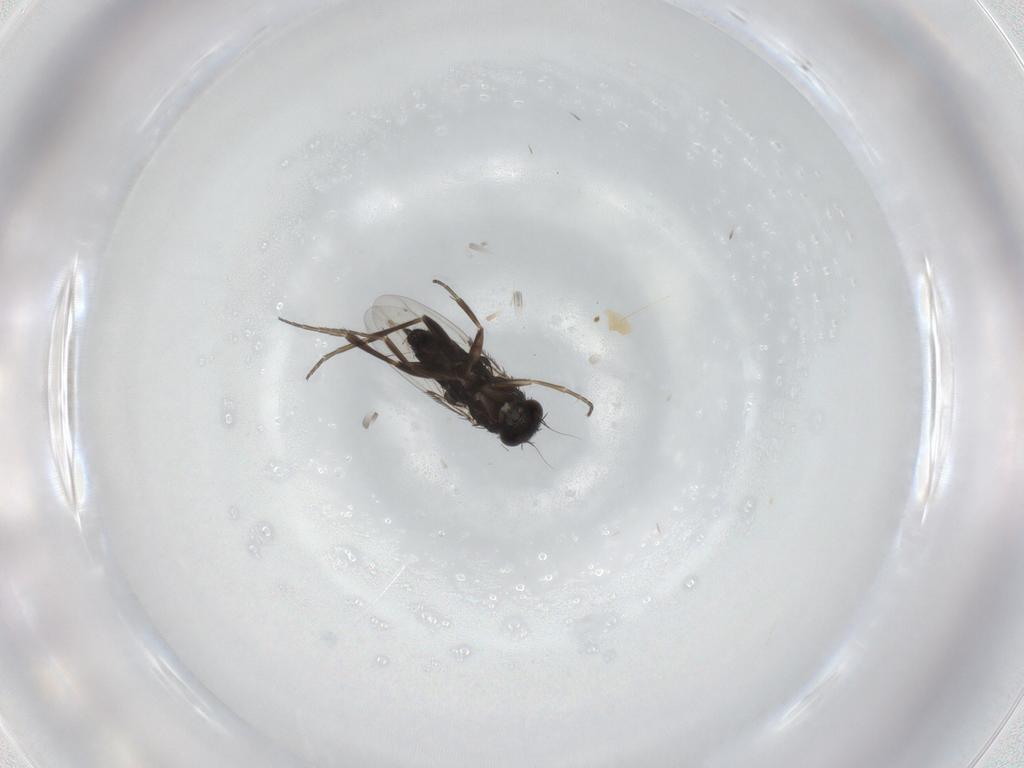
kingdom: Animalia
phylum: Arthropoda
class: Insecta
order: Diptera
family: Phoridae
